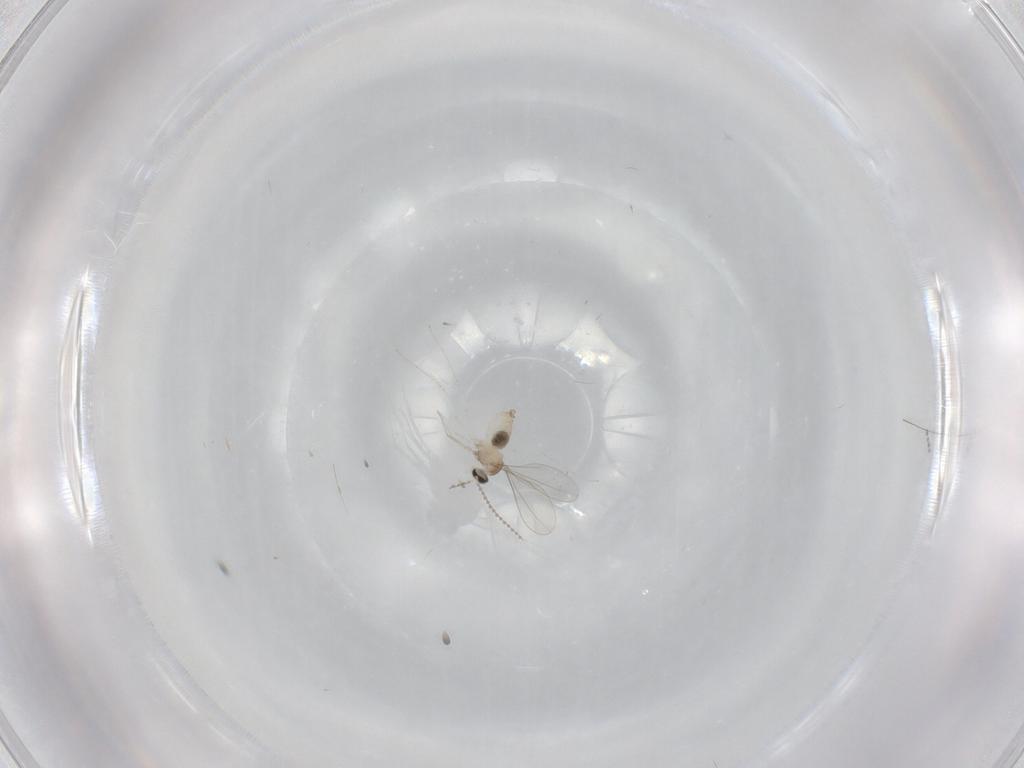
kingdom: Animalia
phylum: Arthropoda
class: Insecta
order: Diptera
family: Cecidomyiidae
